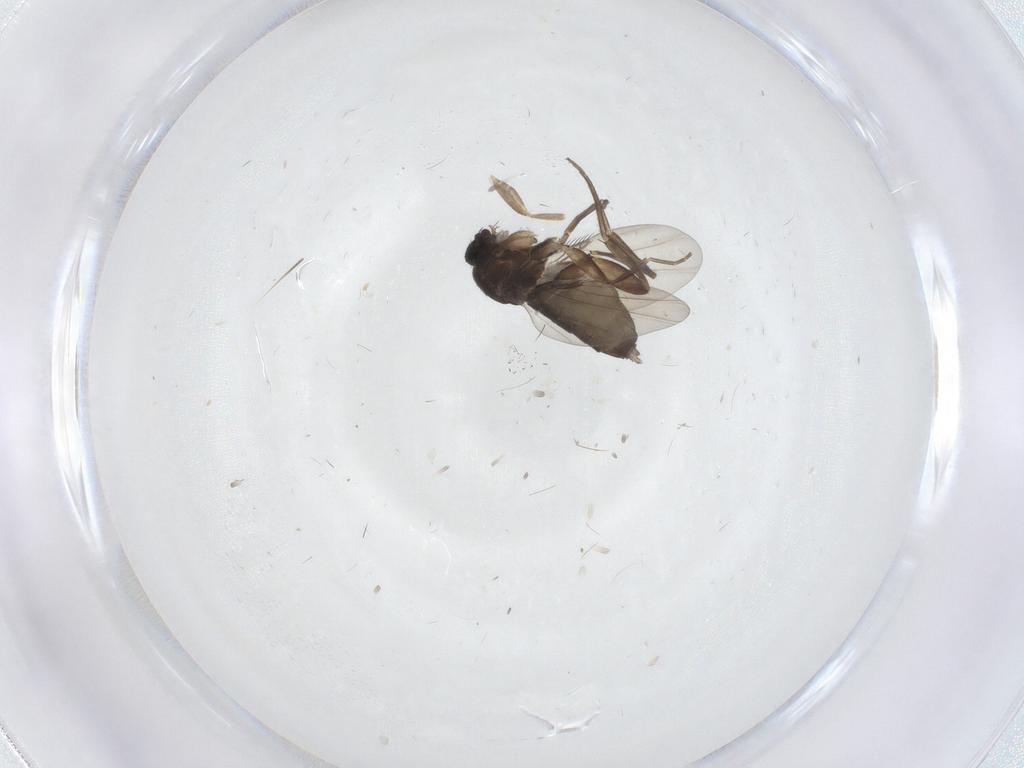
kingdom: Animalia
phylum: Arthropoda
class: Insecta
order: Diptera
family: Phoridae
